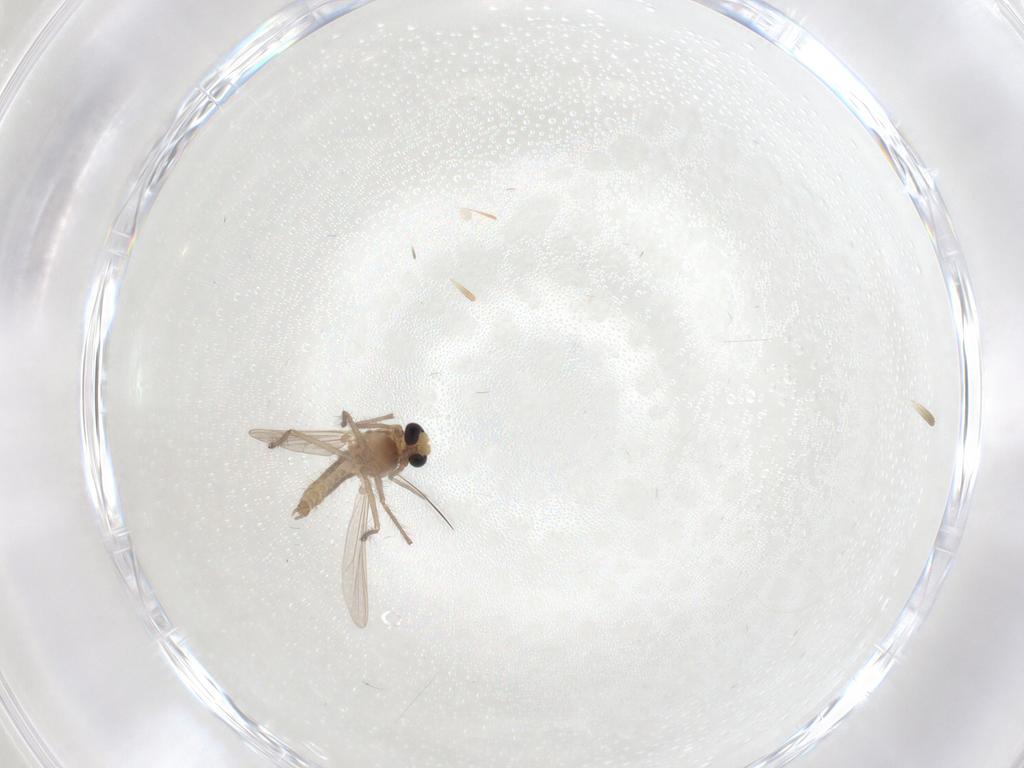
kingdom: Animalia
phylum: Arthropoda
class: Insecta
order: Diptera
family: Chironomidae
